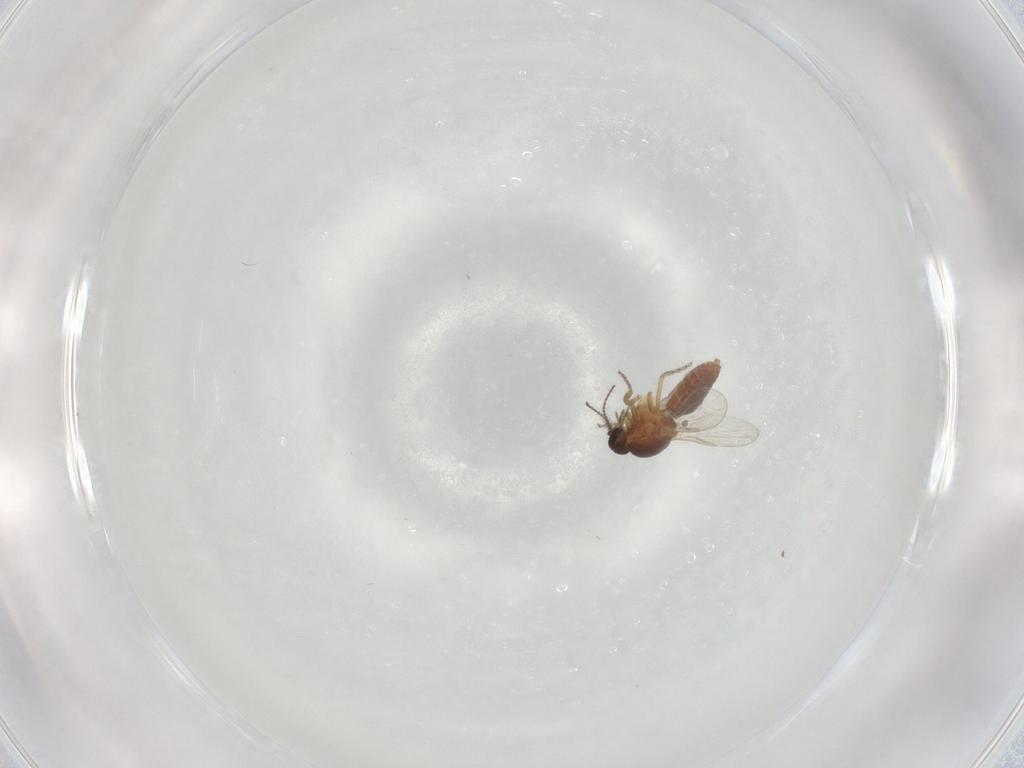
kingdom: Animalia
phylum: Arthropoda
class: Insecta
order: Diptera
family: Ceratopogonidae
